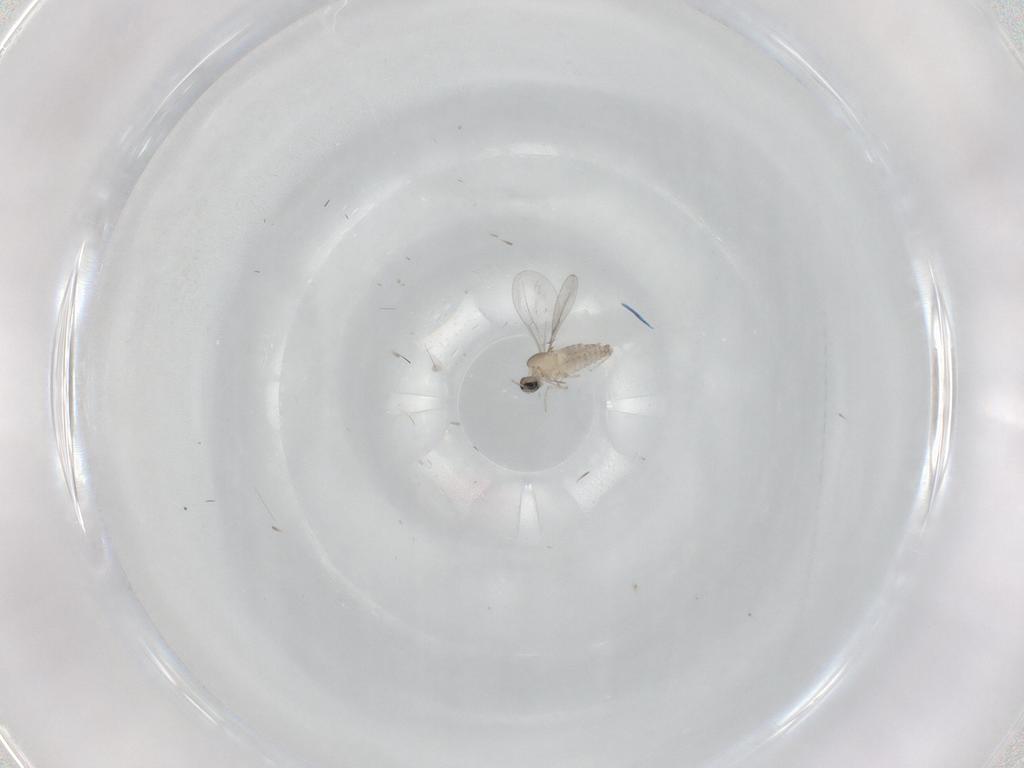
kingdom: Animalia
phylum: Arthropoda
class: Insecta
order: Diptera
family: Cecidomyiidae
